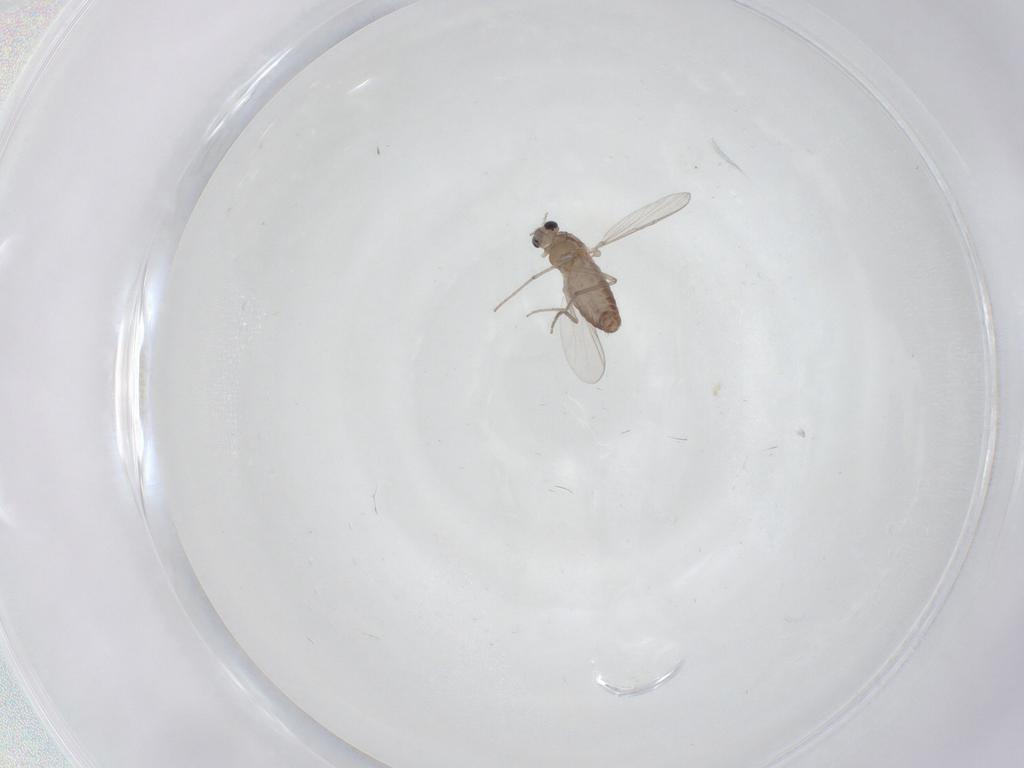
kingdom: Animalia
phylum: Arthropoda
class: Insecta
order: Diptera
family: Chironomidae
